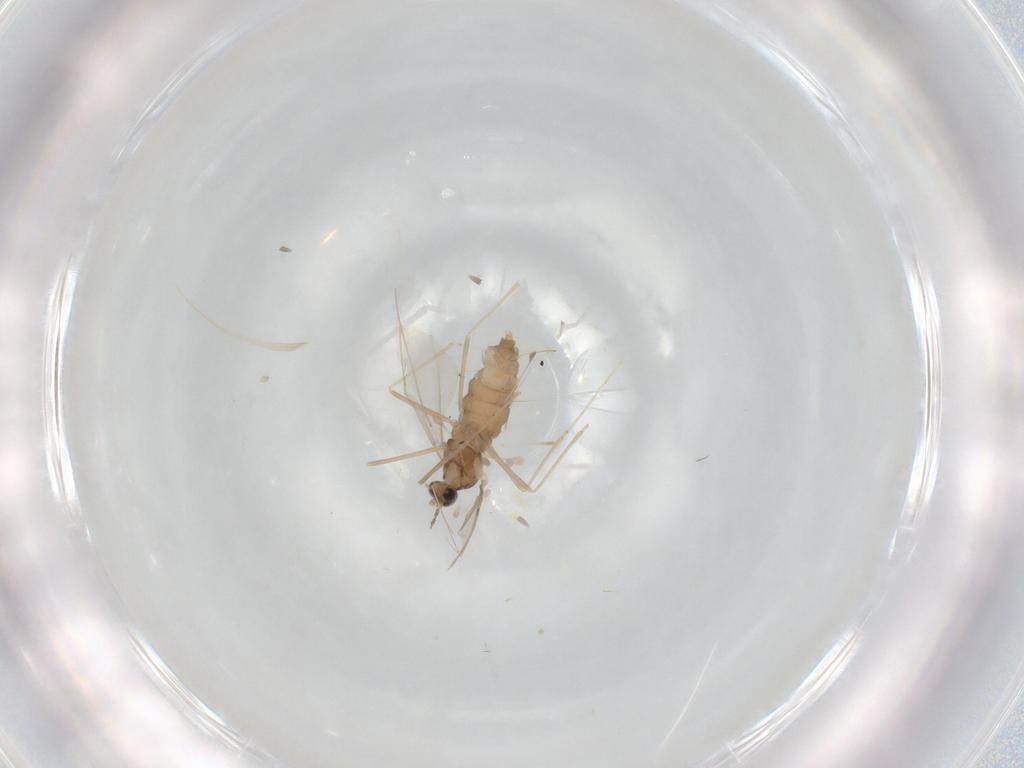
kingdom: Animalia
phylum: Arthropoda
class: Insecta
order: Diptera
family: Cecidomyiidae
